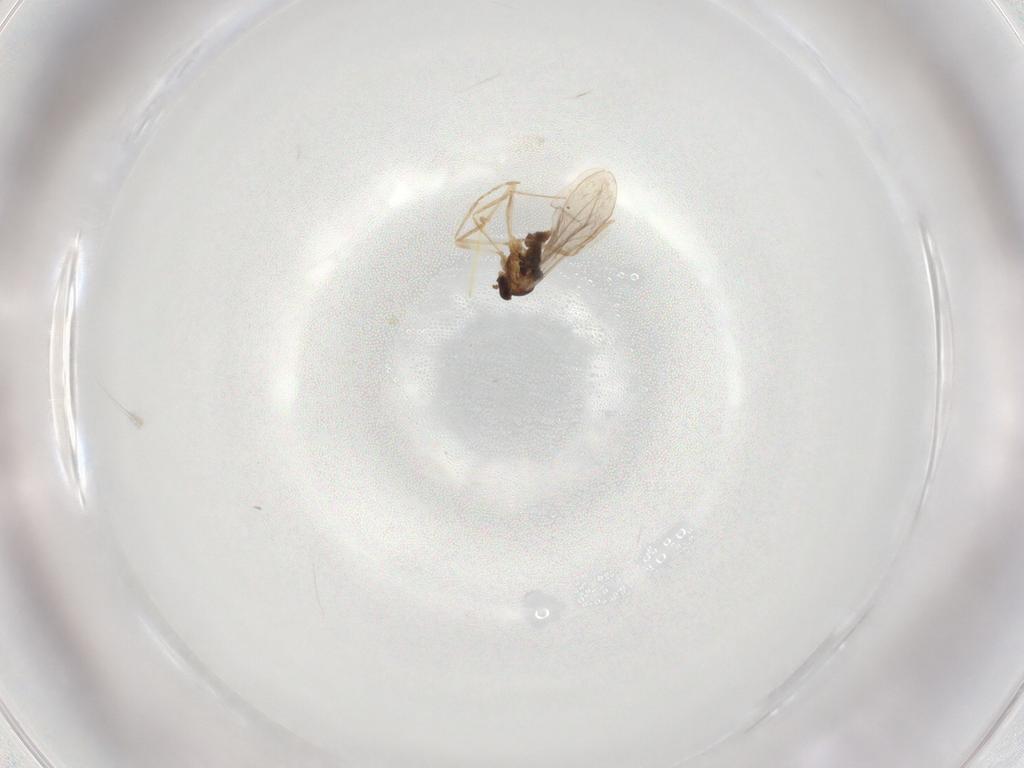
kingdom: Animalia
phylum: Arthropoda
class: Insecta
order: Diptera
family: Cecidomyiidae
